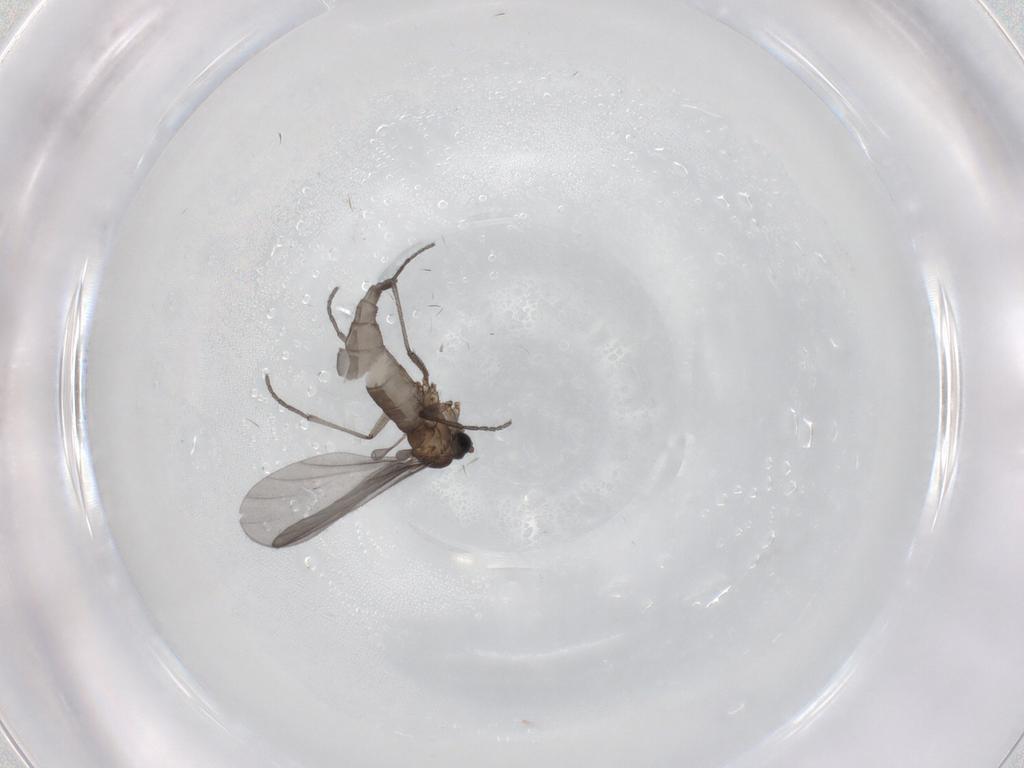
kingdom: Animalia
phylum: Arthropoda
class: Insecta
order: Diptera
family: Sciaridae
